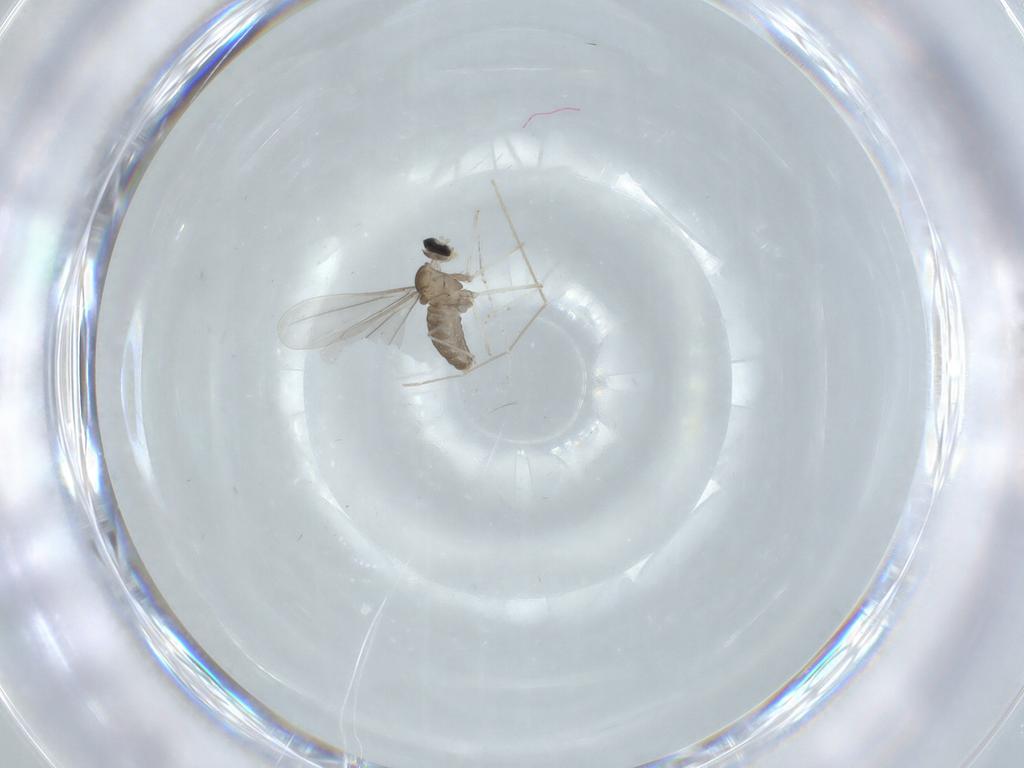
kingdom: Animalia
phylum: Arthropoda
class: Insecta
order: Diptera
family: Cecidomyiidae
